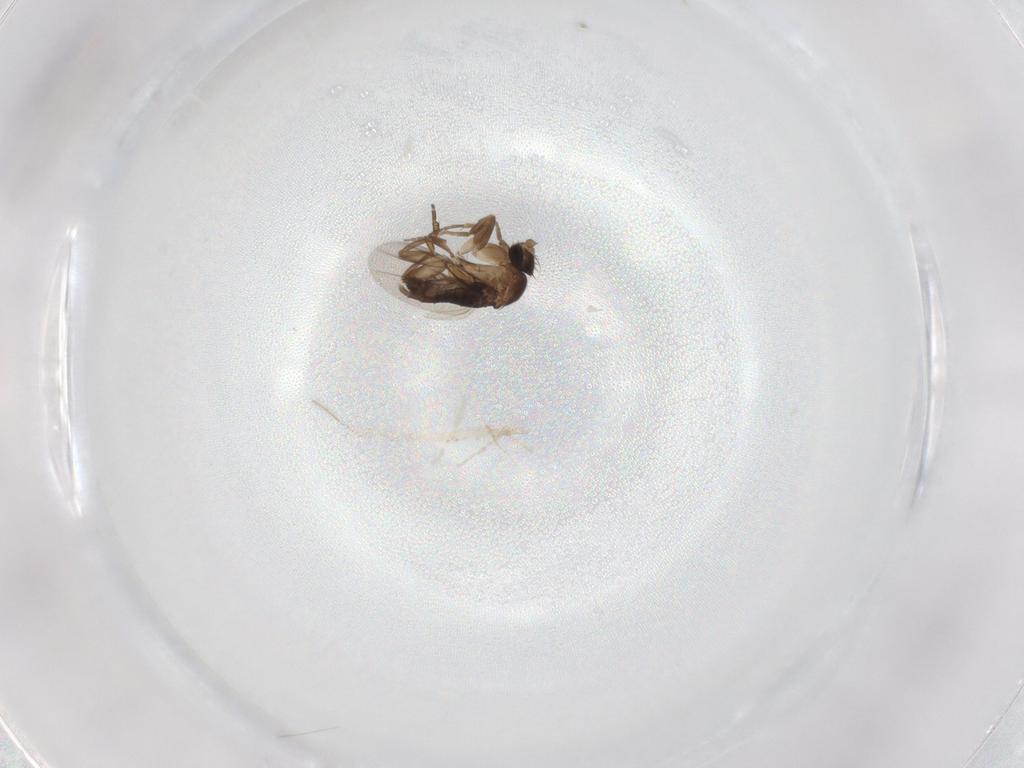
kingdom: Animalia
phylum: Arthropoda
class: Insecta
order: Diptera
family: Phoridae
